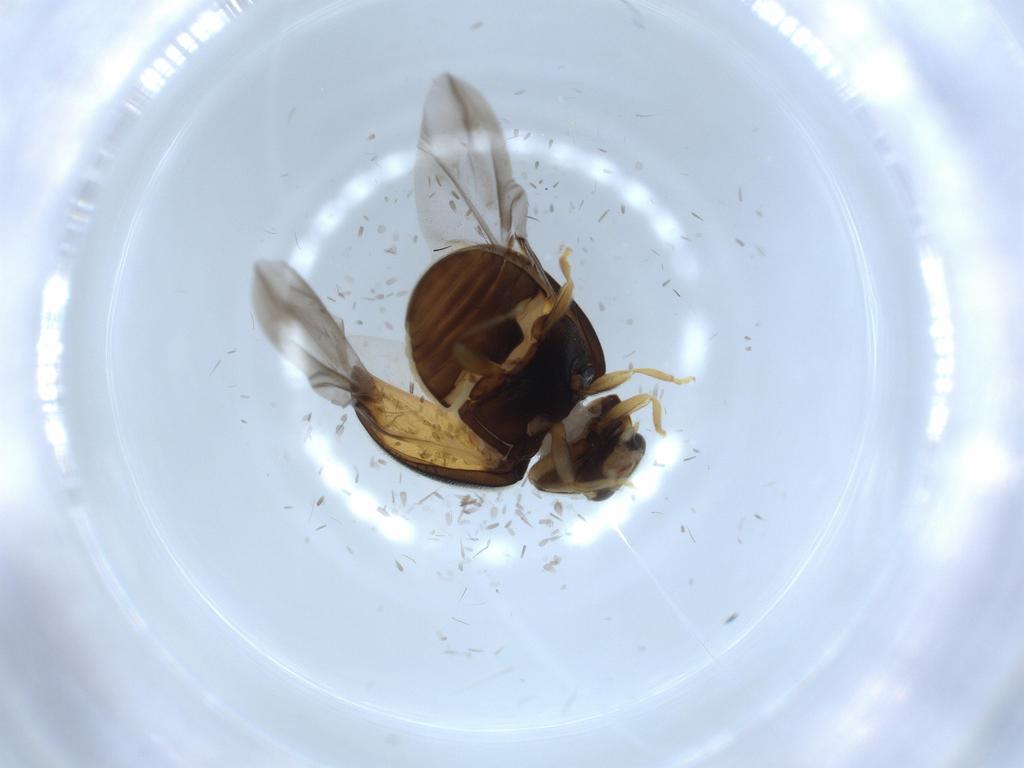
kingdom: Animalia
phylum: Arthropoda
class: Insecta
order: Coleoptera
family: Coccinellidae
